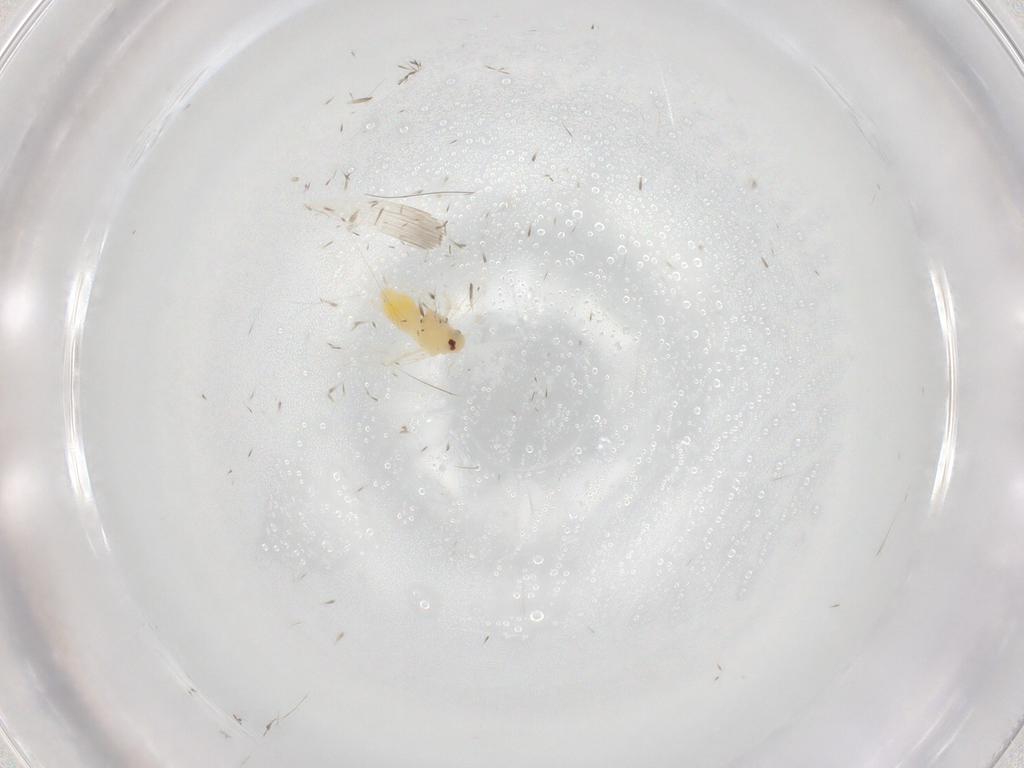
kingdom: Animalia
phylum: Arthropoda
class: Insecta
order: Hemiptera
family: Aleyrodidae
